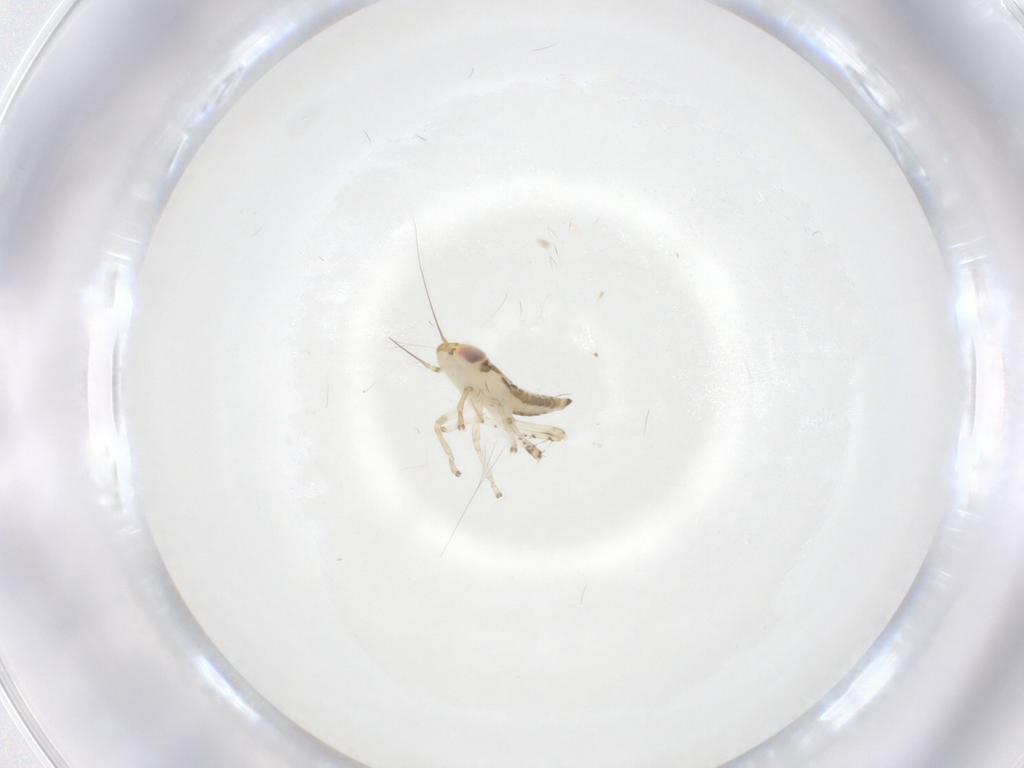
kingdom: Animalia
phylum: Arthropoda
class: Insecta
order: Hemiptera
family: Cicadellidae
